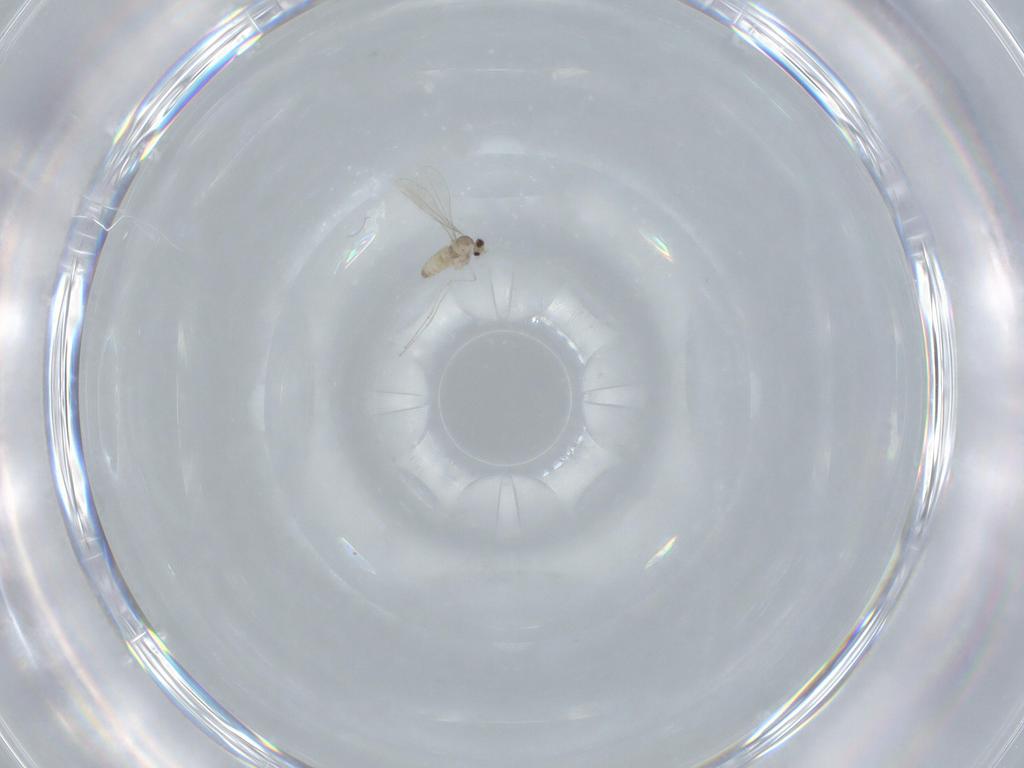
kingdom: Animalia
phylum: Arthropoda
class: Insecta
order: Diptera
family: Cecidomyiidae
